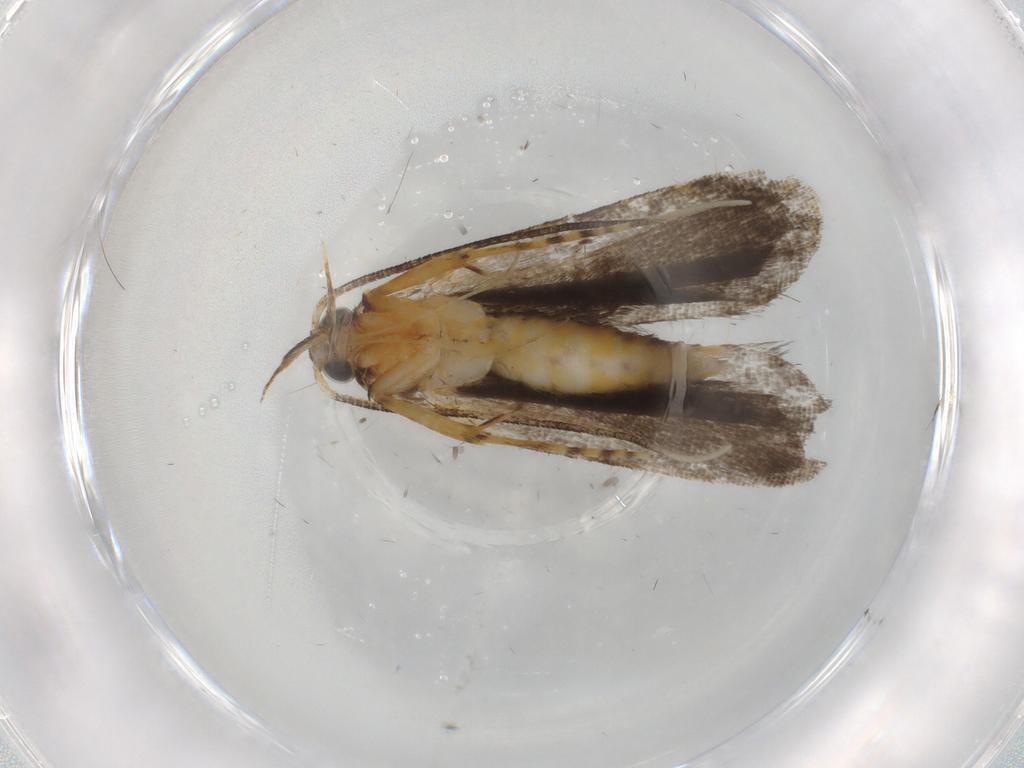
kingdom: Animalia
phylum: Arthropoda
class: Insecta
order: Lepidoptera
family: Cosmopterigidae
